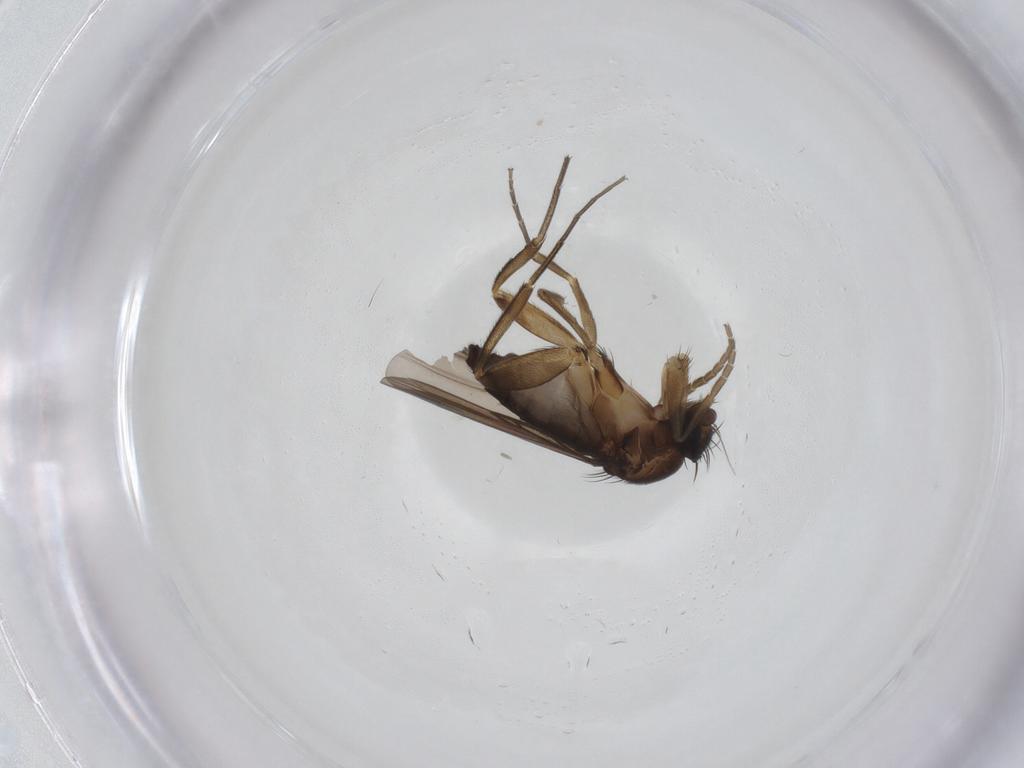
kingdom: Animalia
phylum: Arthropoda
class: Insecta
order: Diptera
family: Phoridae
